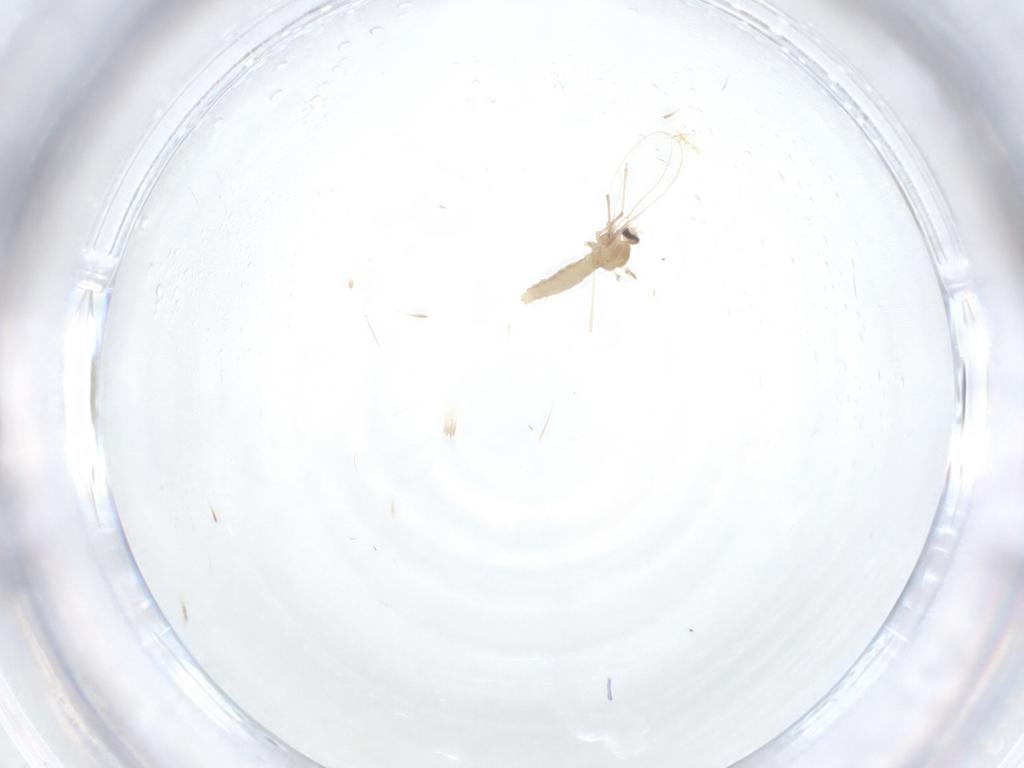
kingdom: Animalia
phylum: Arthropoda
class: Insecta
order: Diptera
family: Cecidomyiidae
